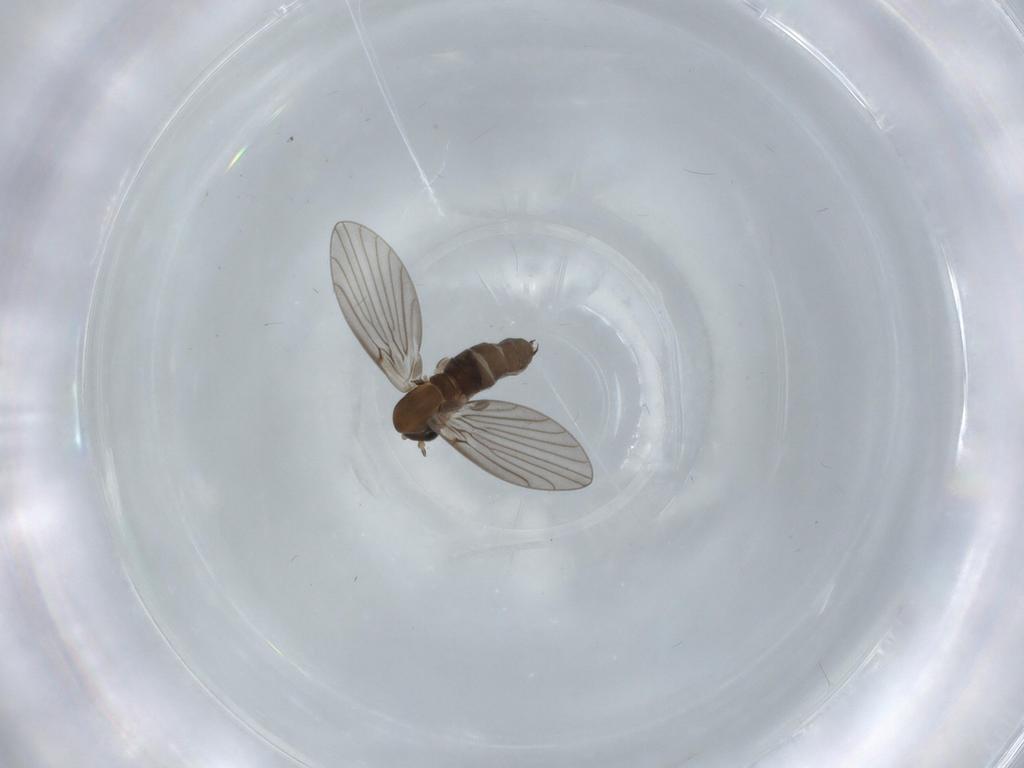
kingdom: Animalia
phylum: Arthropoda
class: Insecta
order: Diptera
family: Psychodidae
